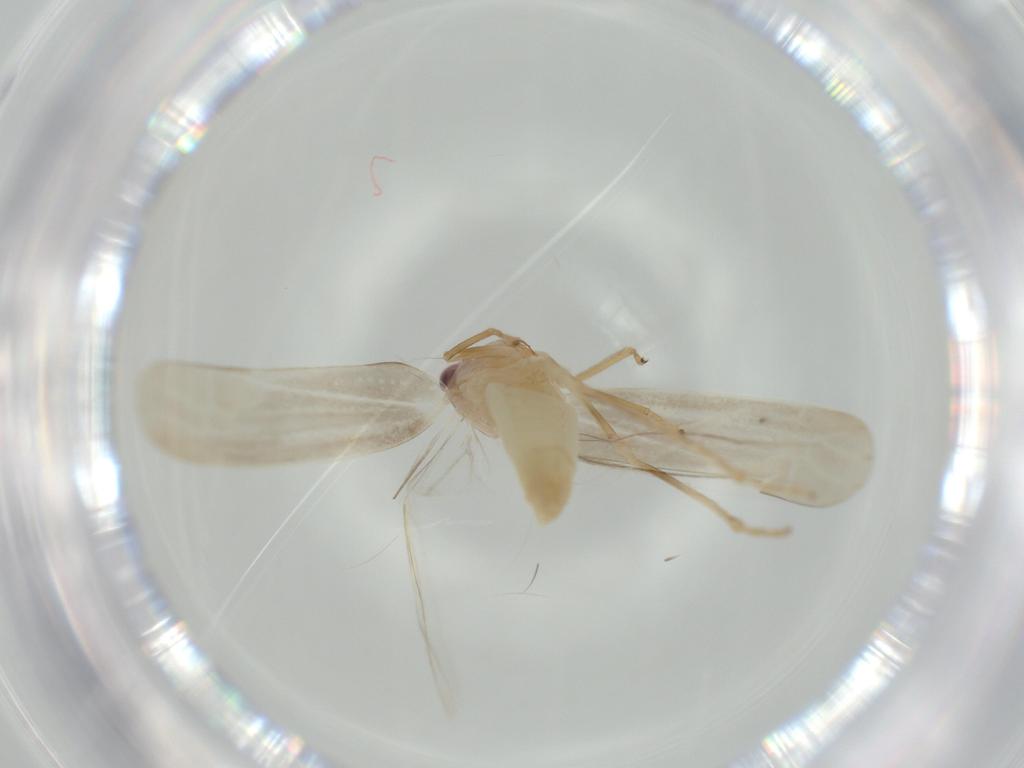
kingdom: Animalia
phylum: Arthropoda
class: Insecta
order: Hemiptera
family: Cicadellidae
